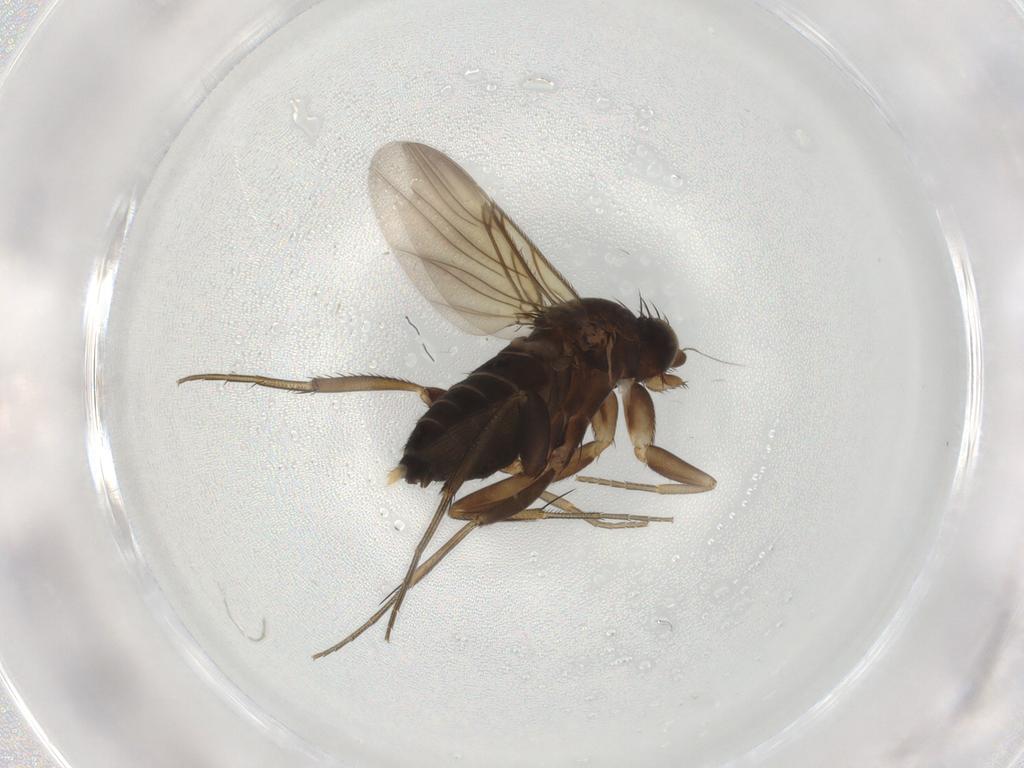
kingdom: Animalia
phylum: Arthropoda
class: Insecta
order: Diptera
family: Phoridae
